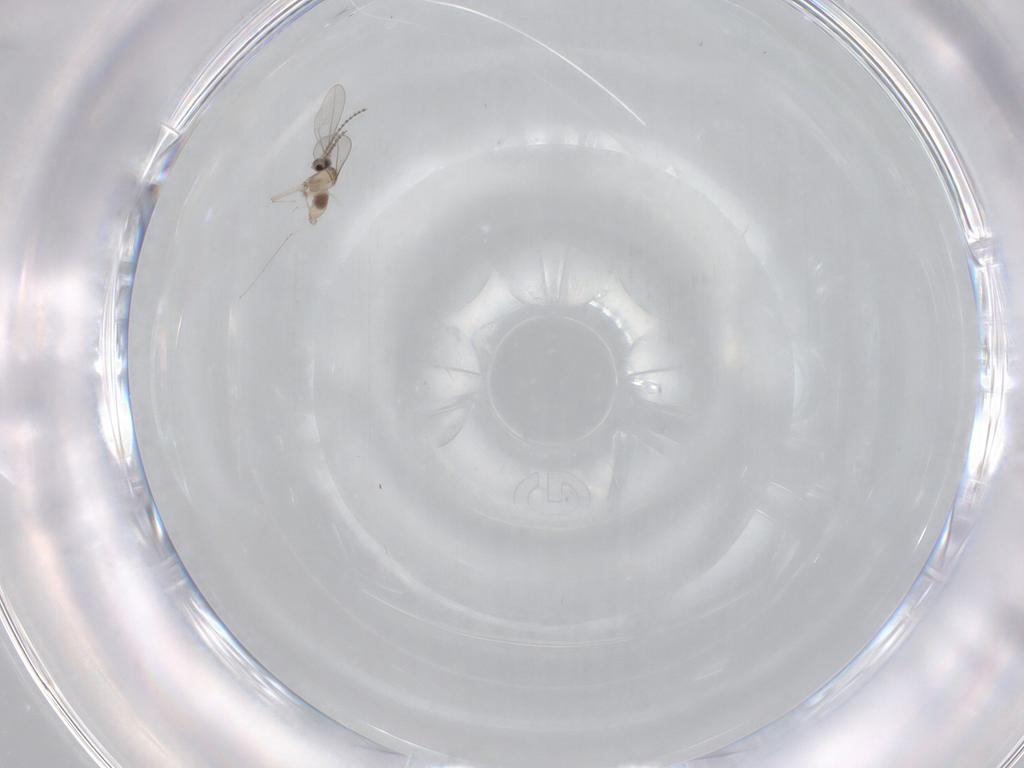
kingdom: Animalia
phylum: Arthropoda
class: Insecta
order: Diptera
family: Cecidomyiidae
